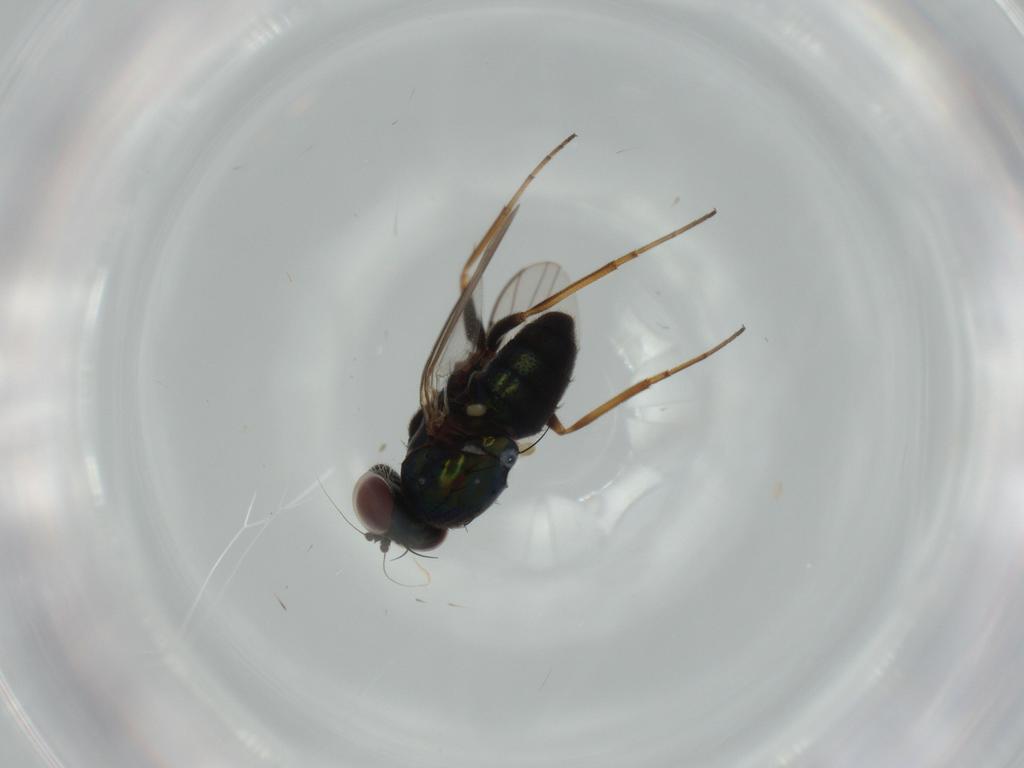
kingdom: Animalia
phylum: Arthropoda
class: Insecta
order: Diptera
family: Dolichopodidae
